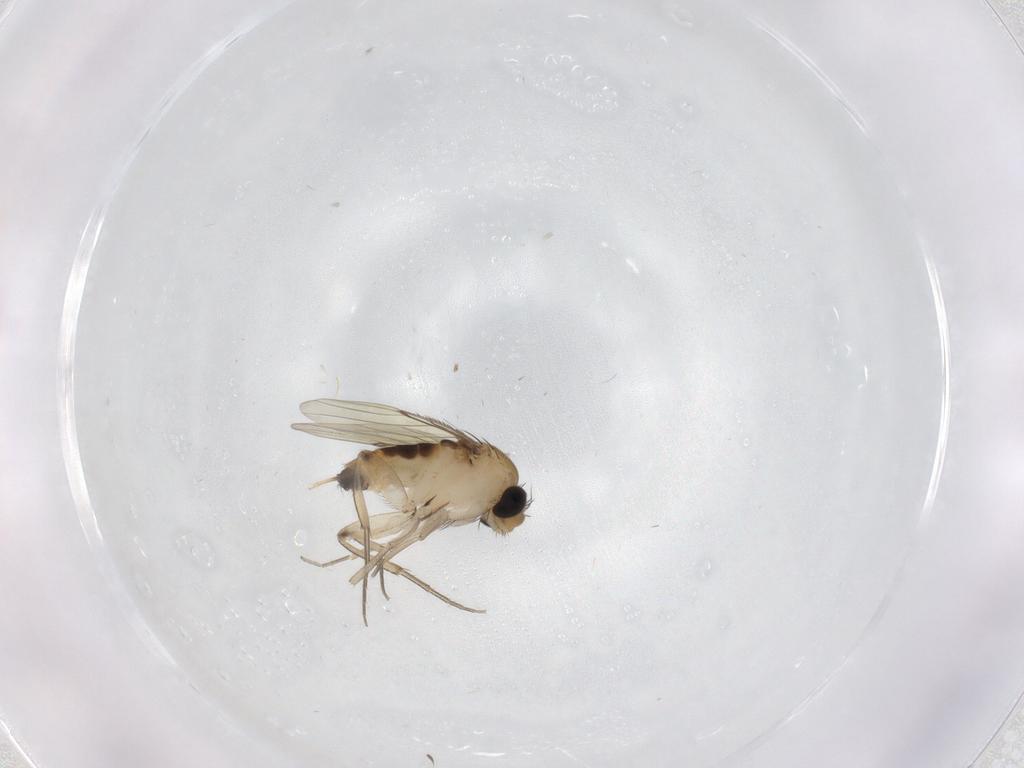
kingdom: Animalia
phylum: Arthropoda
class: Insecta
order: Diptera
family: Phoridae
